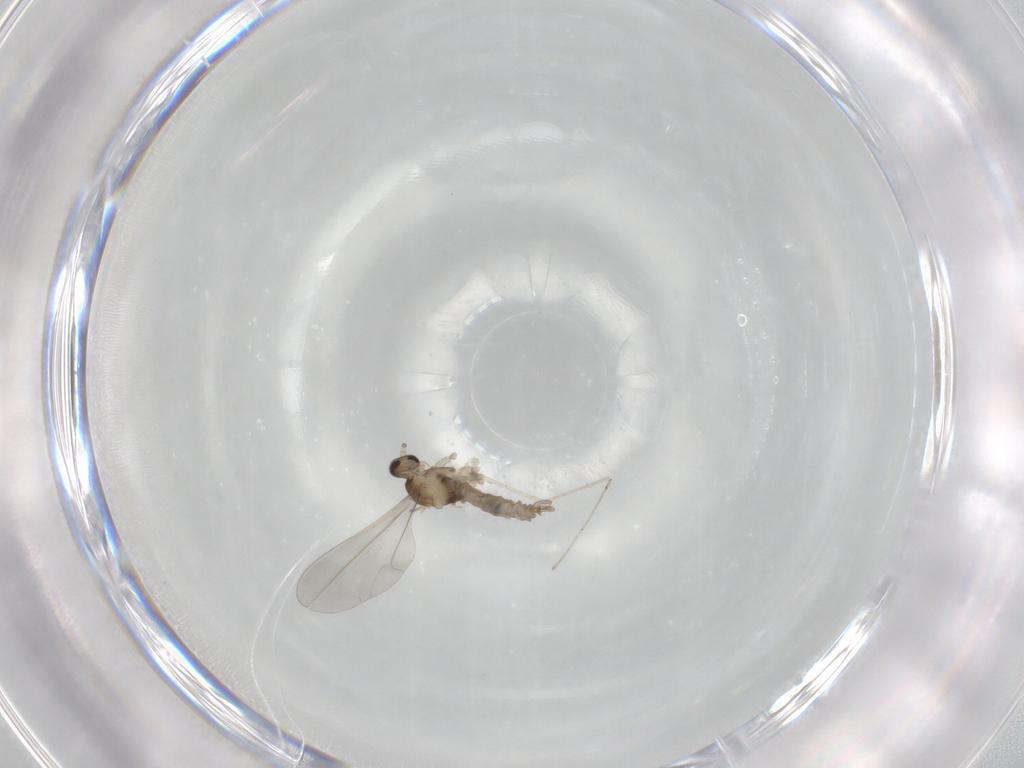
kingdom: Animalia
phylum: Arthropoda
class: Insecta
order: Diptera
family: Cecidomyiidae
